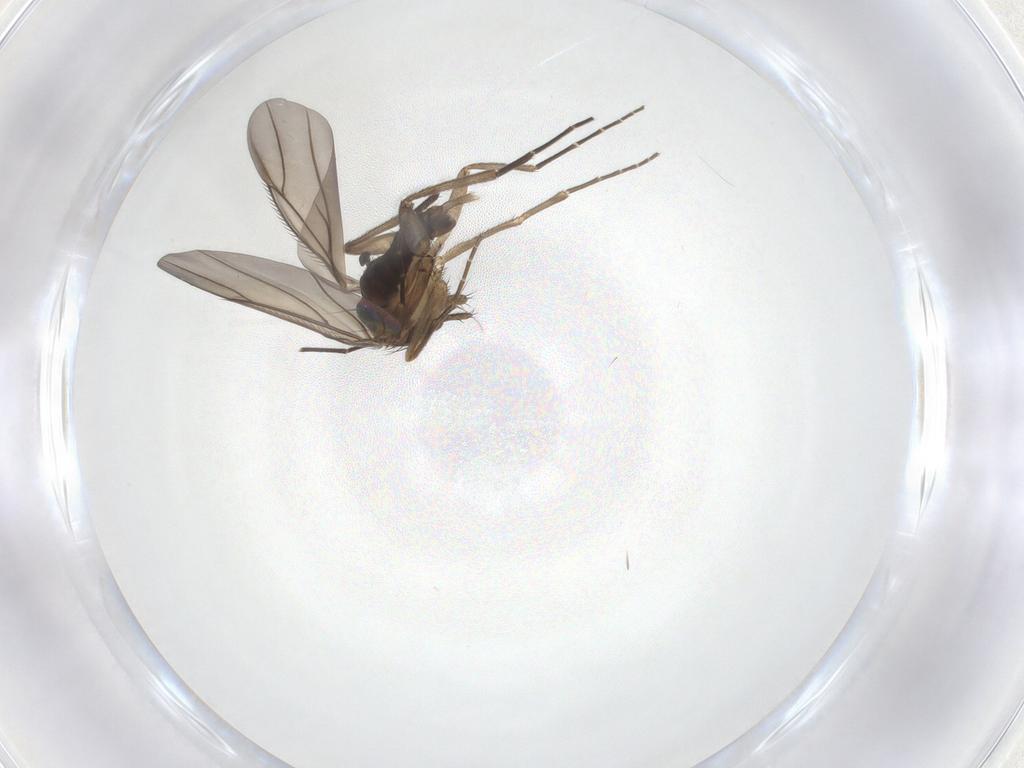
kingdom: Animalia
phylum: Arthropoda
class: Insecta
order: Diptera
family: Phoridae
